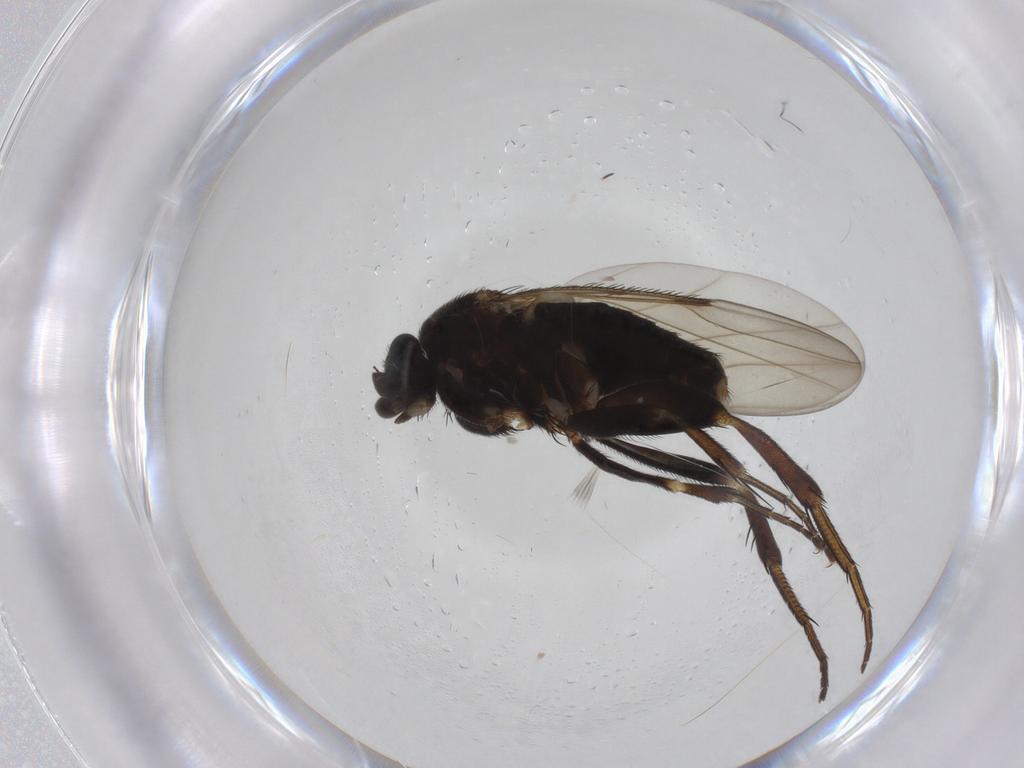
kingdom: Animalia
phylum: Arthropoda
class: Insecta
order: Diptera
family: Phoridae
